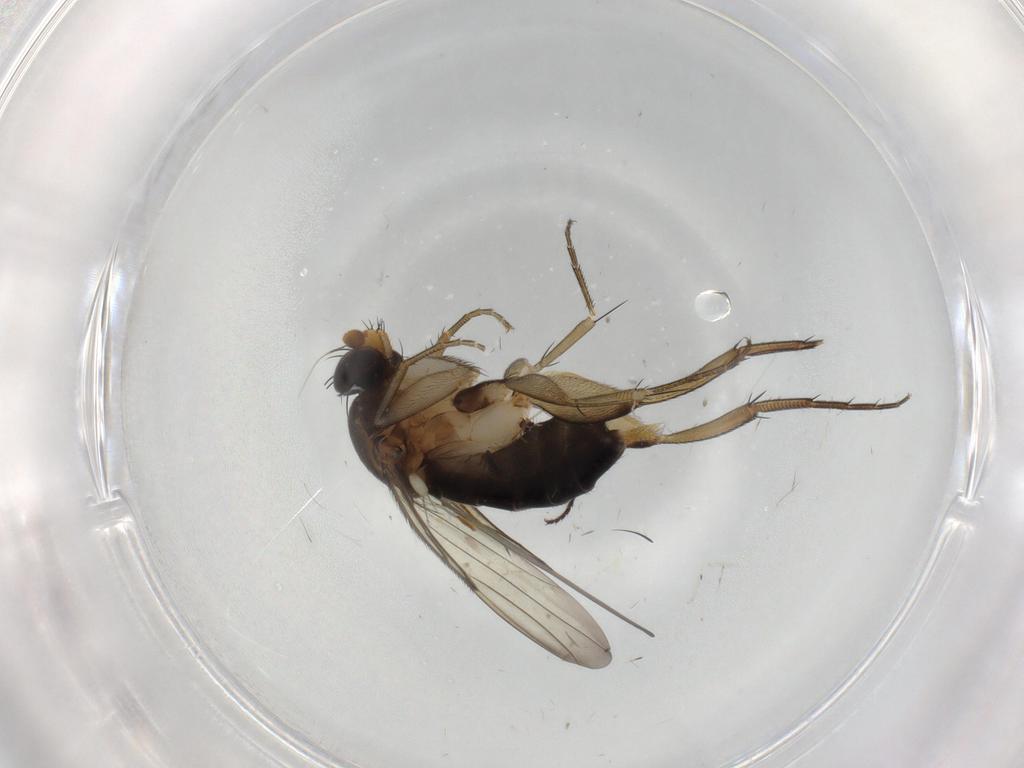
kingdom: Animalia
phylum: Arthropoda
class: Insecta
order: Diptera
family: Phoridae
